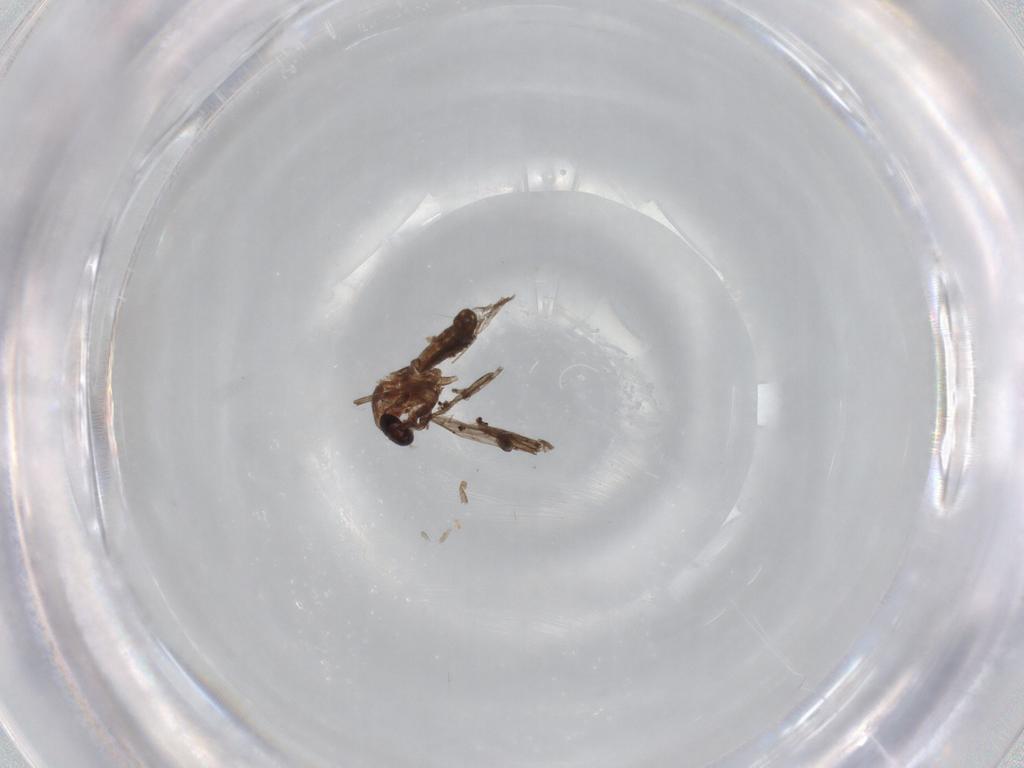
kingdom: Animalia
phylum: Arthropoda
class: Insecta
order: Diptera
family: Chironomidae
